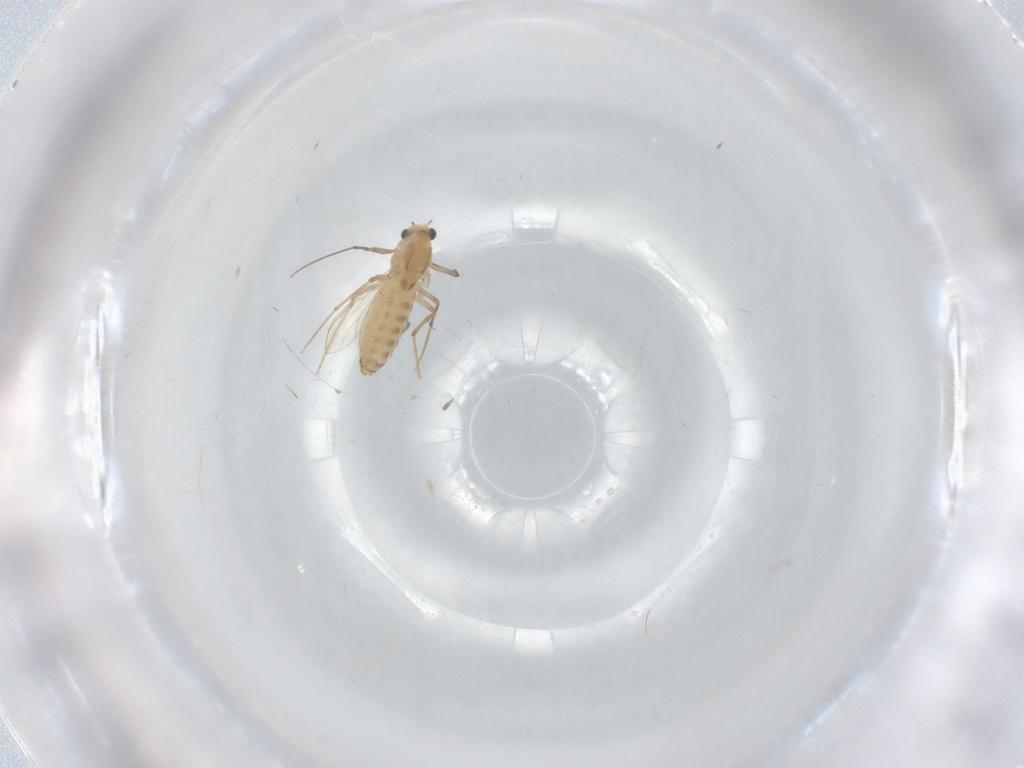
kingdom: Animalia
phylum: Arthropoda
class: Insecta
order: Diptera
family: Chironomidae
